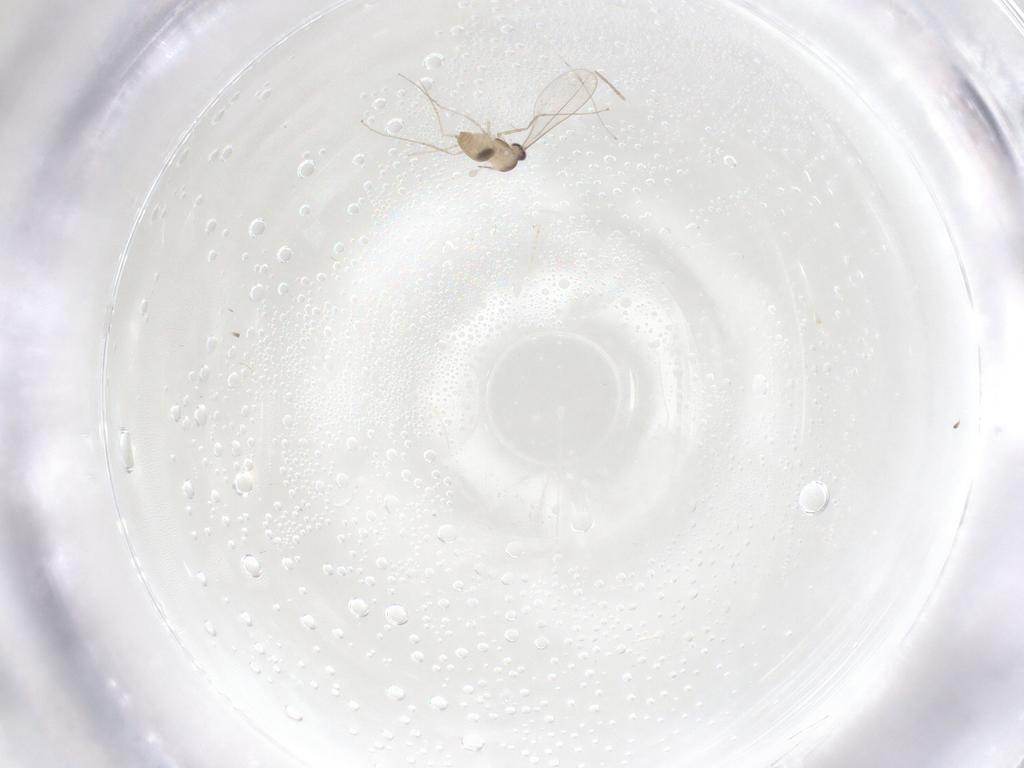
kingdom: Animalia
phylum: Arthropoda
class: Insecta
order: Diptera
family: Cecidomyiidae
